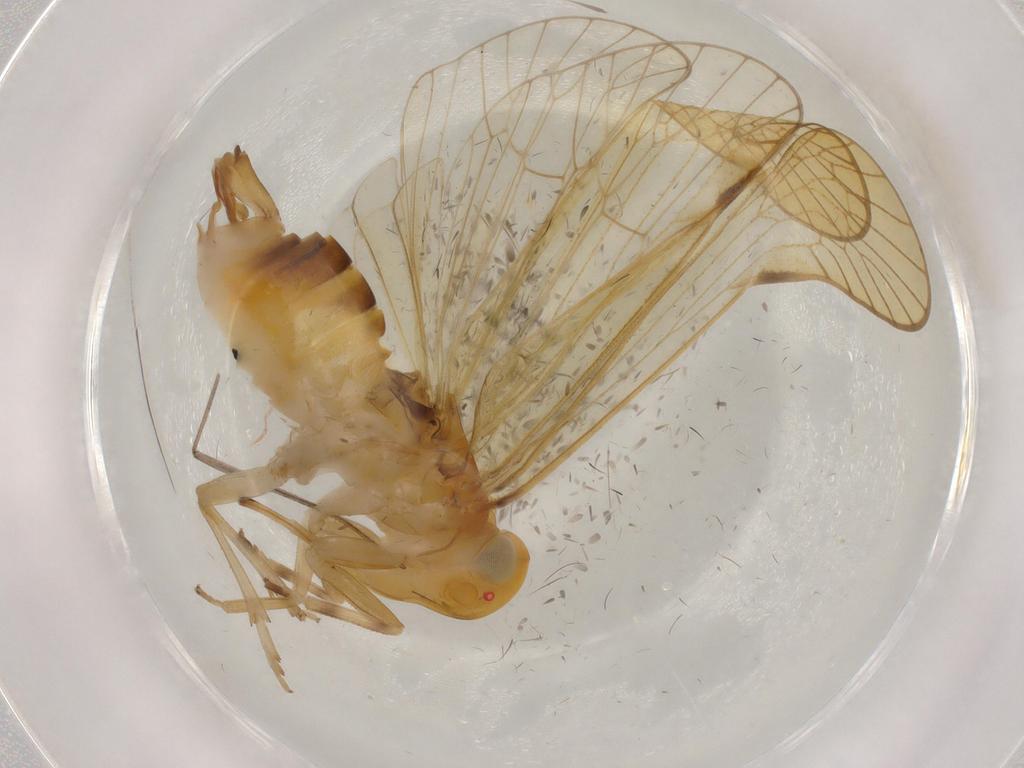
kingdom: Animalia
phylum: Arthropoda
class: Insecta
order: Hemiptera
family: Cixiidae
